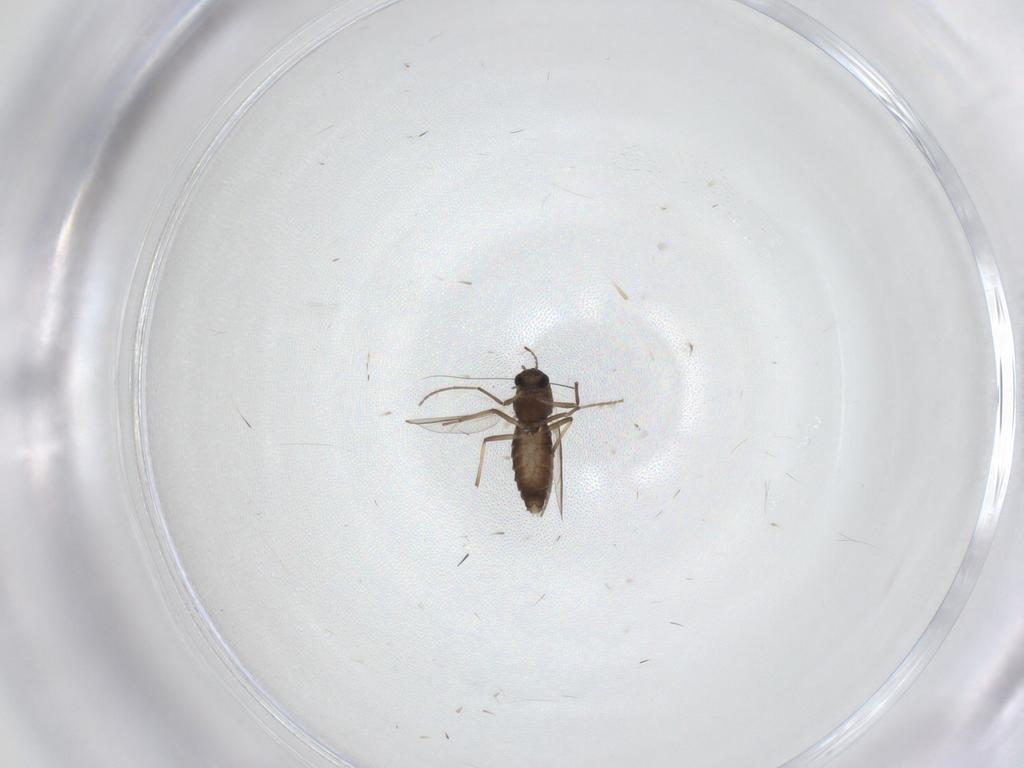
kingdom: Animalia
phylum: Arthropoda
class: Insecta
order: Diptera
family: Chironomidae
